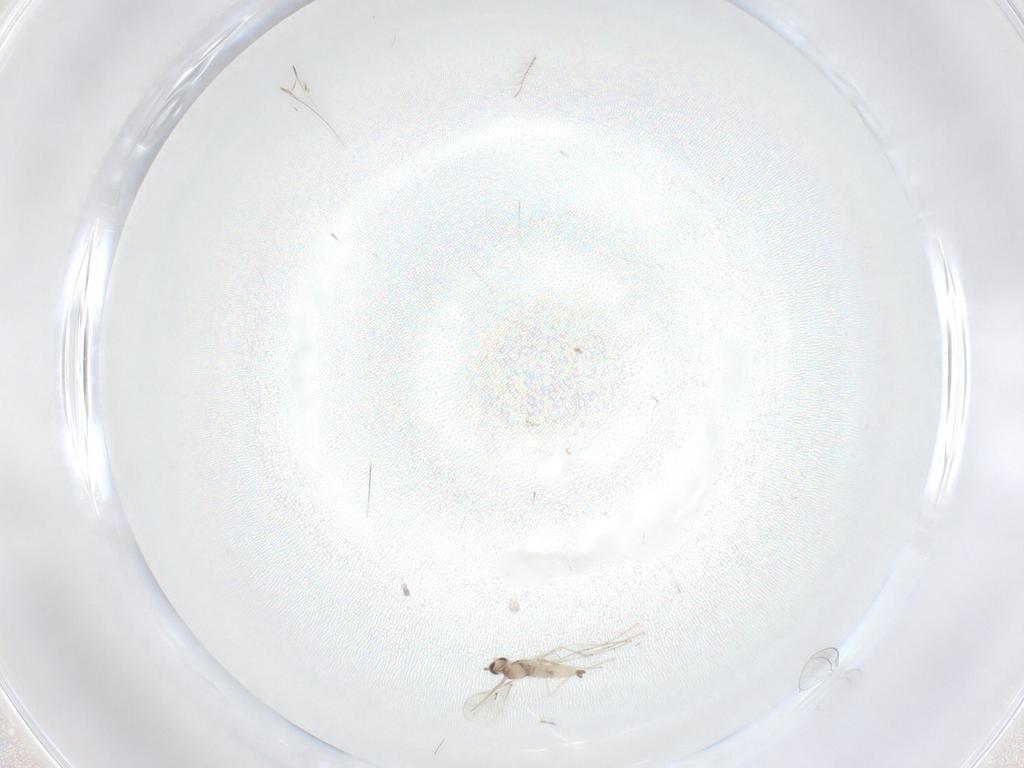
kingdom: Animalia
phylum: Arthropoda
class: Insecta
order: Diptera
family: Cecidomyiidae
